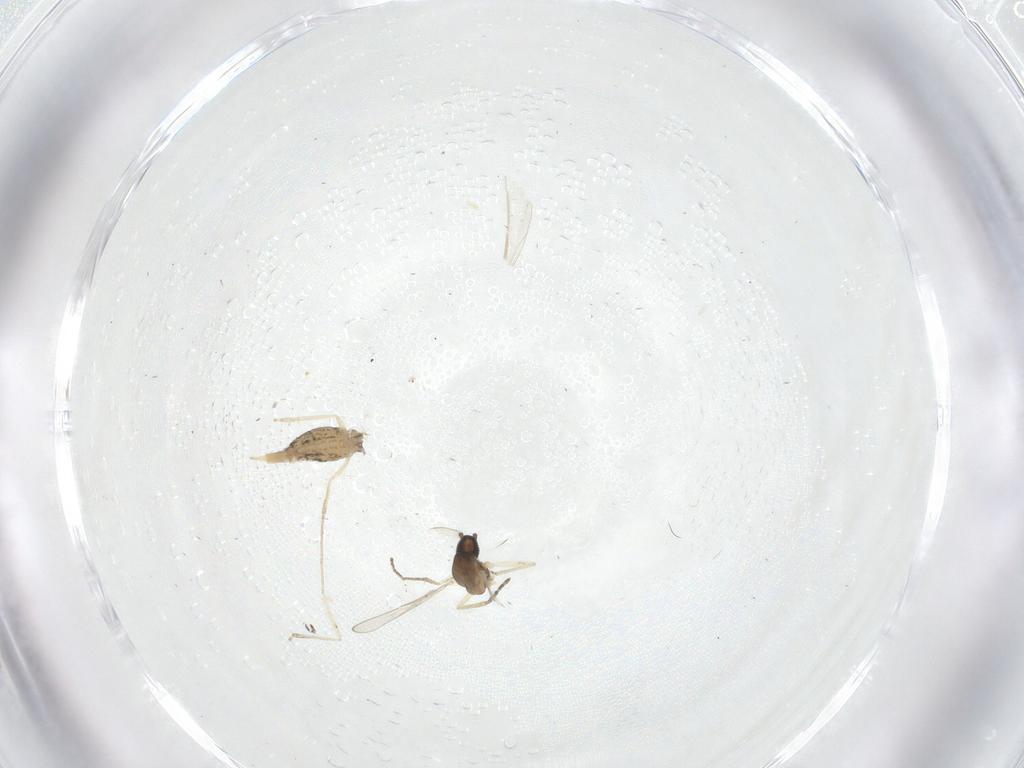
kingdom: Animalia
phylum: Arthropoda
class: Insecta
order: Diptera
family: Cecidomyiidae
